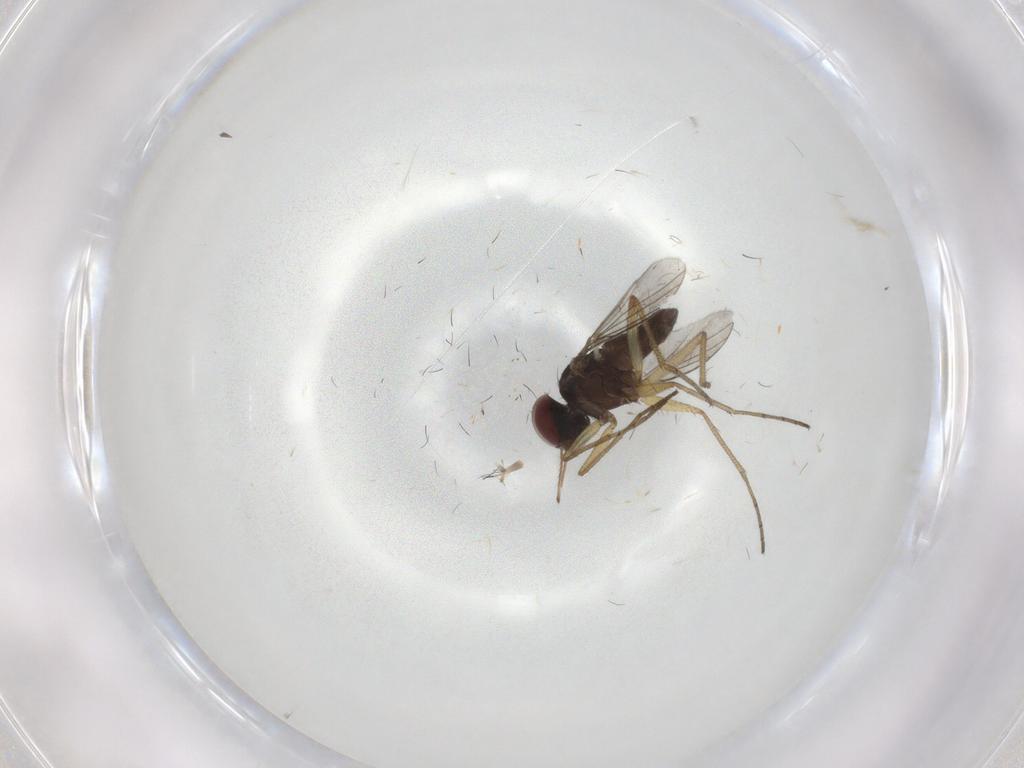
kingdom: Animalia
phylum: Arthropoda
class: Insecta
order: Diptera
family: Dolichopodidae
